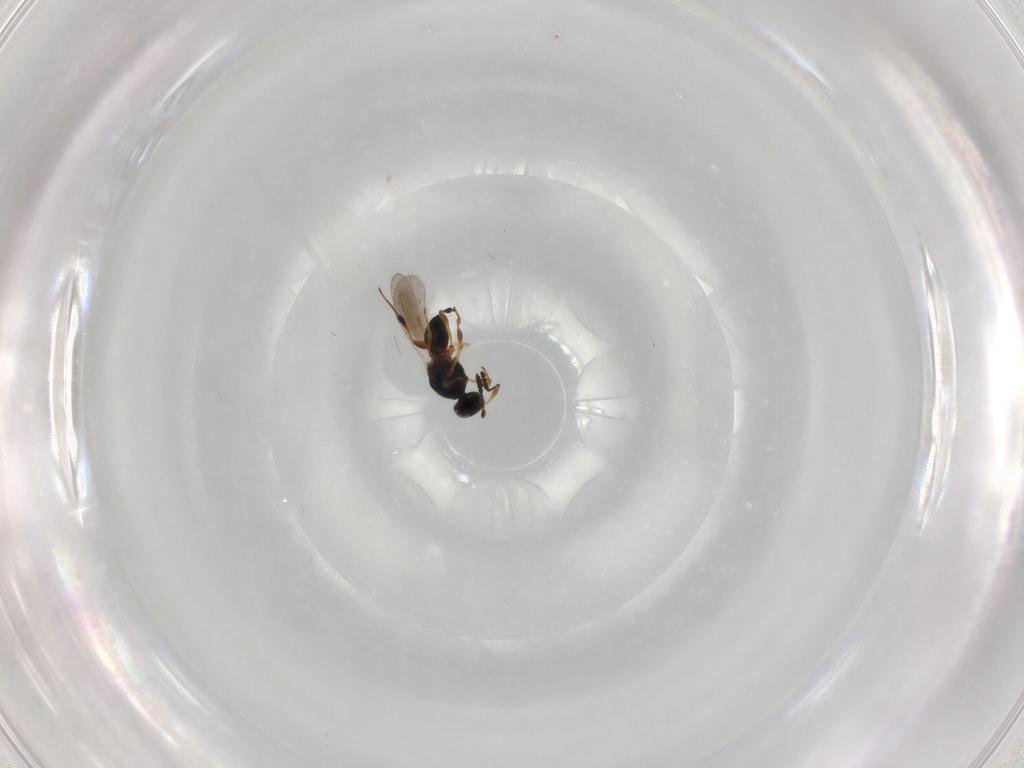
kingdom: Animalia
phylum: Arthropoda
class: Insecta
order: Hymenoptera
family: Platygastridae
